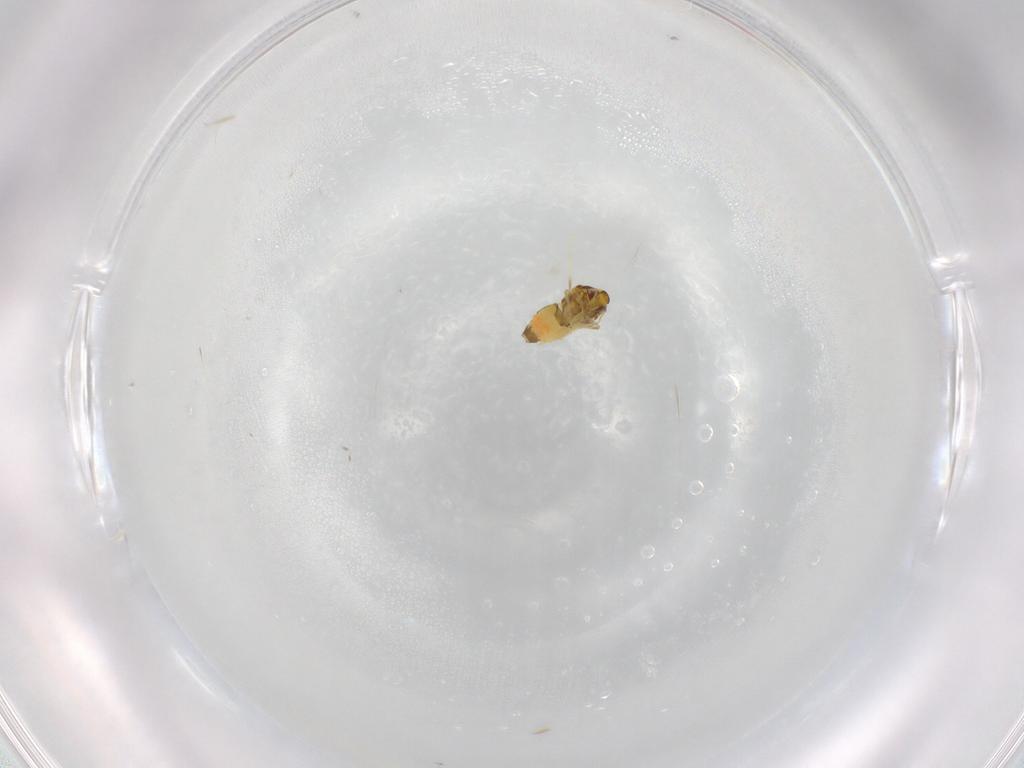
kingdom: Animalia
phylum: Arthropoda
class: Insecta
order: Hemiptera
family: Aleyrodidae
